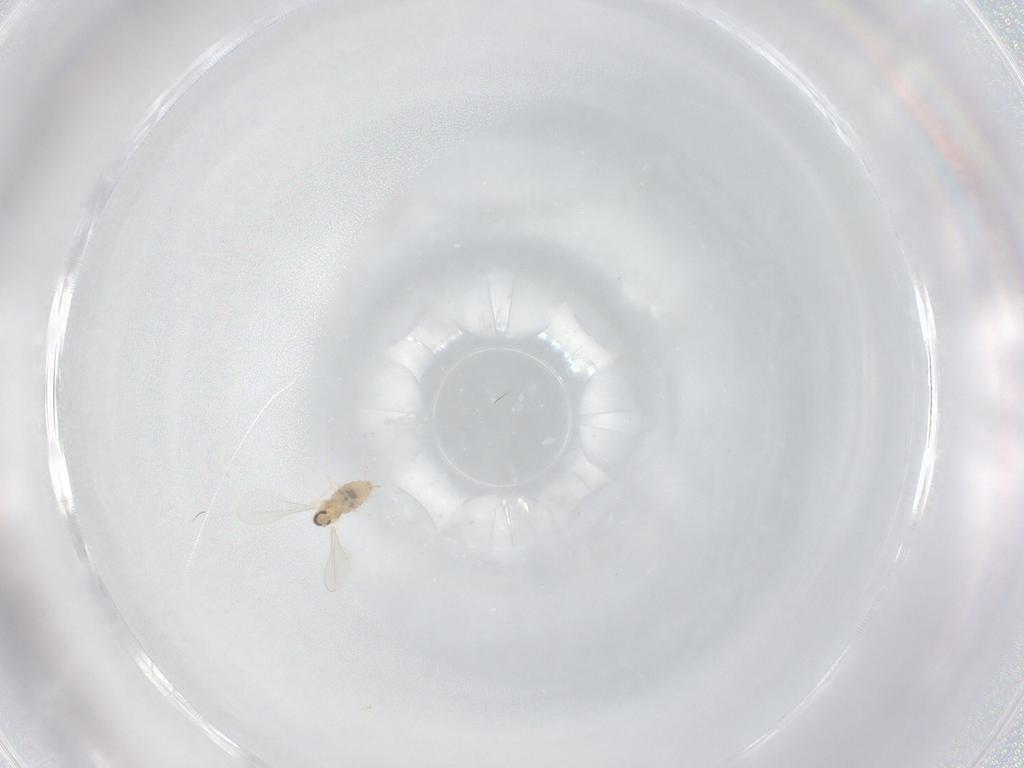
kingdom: Animalia
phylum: Arthropoda
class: Insecta
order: Diptera
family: Cecidomyiidae
